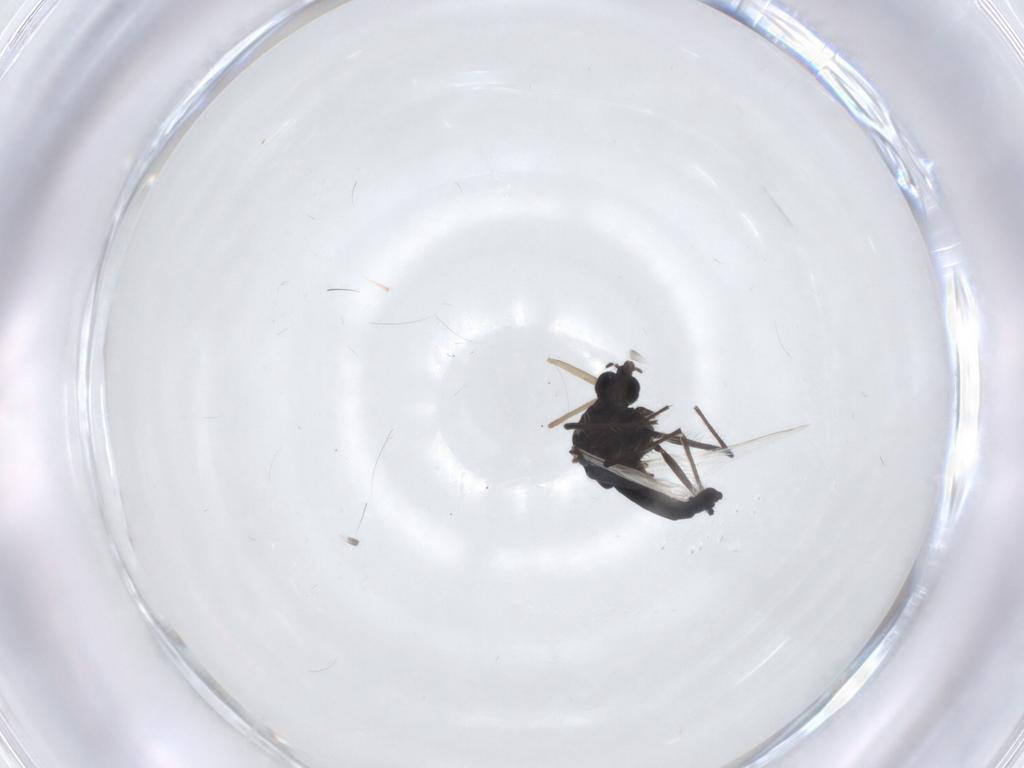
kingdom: Animalia
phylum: Arthropoda
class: Insecta
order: Diptera
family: Chironomidae
